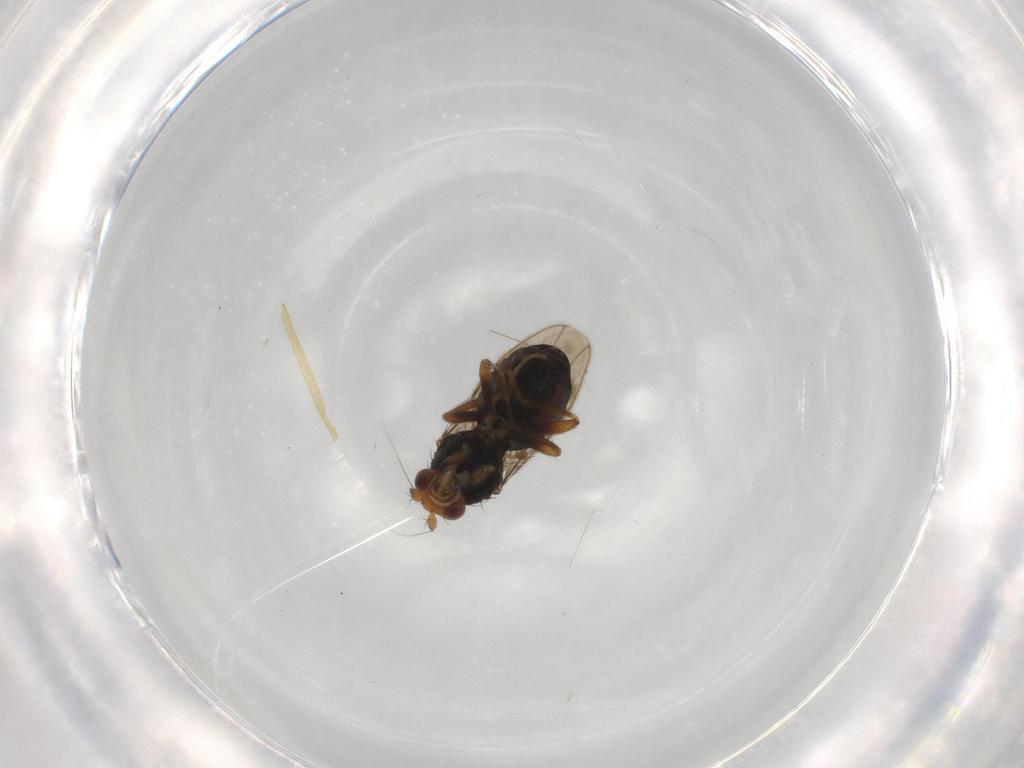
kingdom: Animalia
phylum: Arthropoda
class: Insecta
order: Diptera
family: Sphaeroceridae
